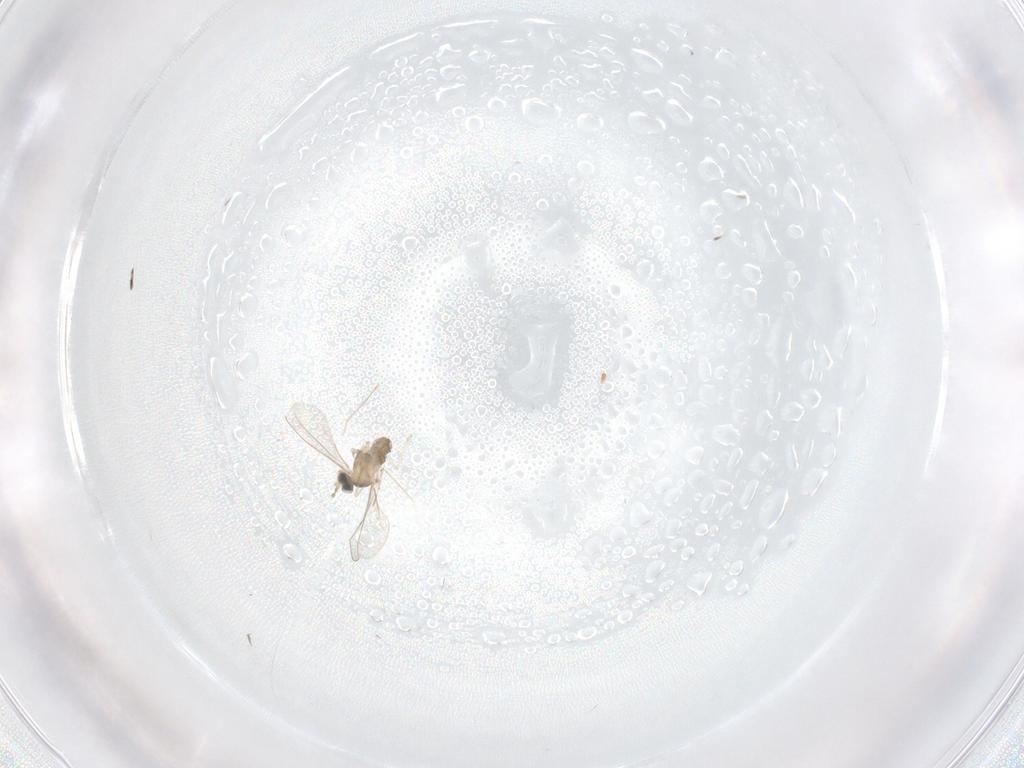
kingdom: Animalia
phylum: Arthropoda
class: Insecta
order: Diptera
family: Cecidomyiidae
